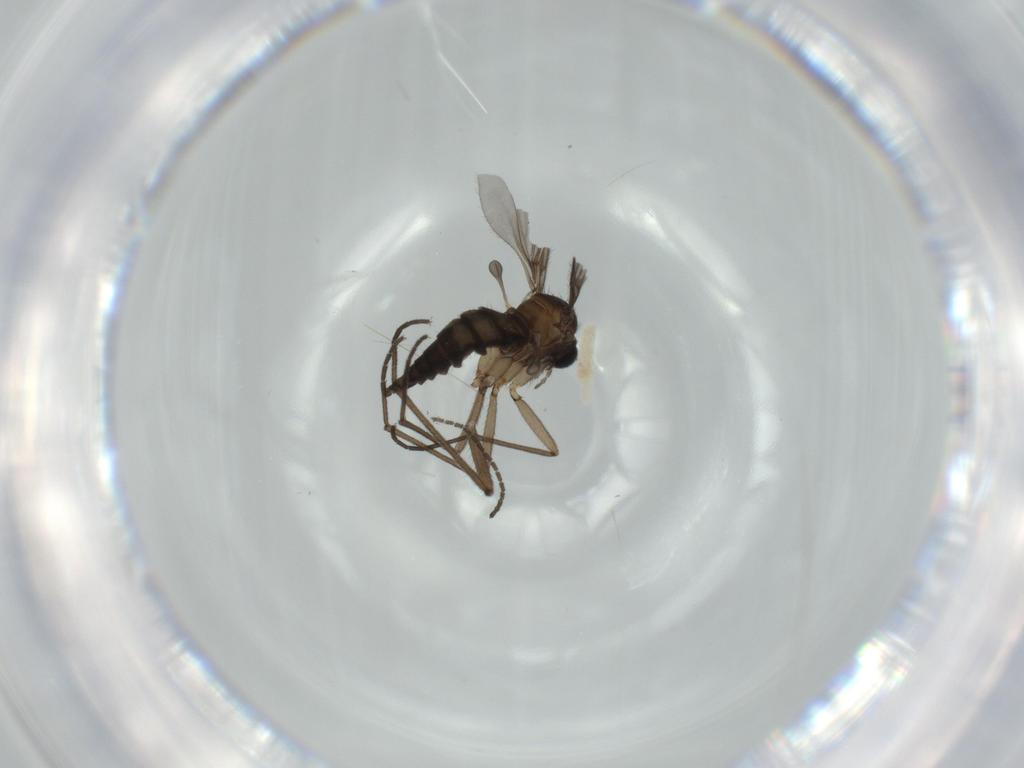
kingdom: Animalia
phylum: Arthropoda
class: Insecta
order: Diptera
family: Sciaridae
